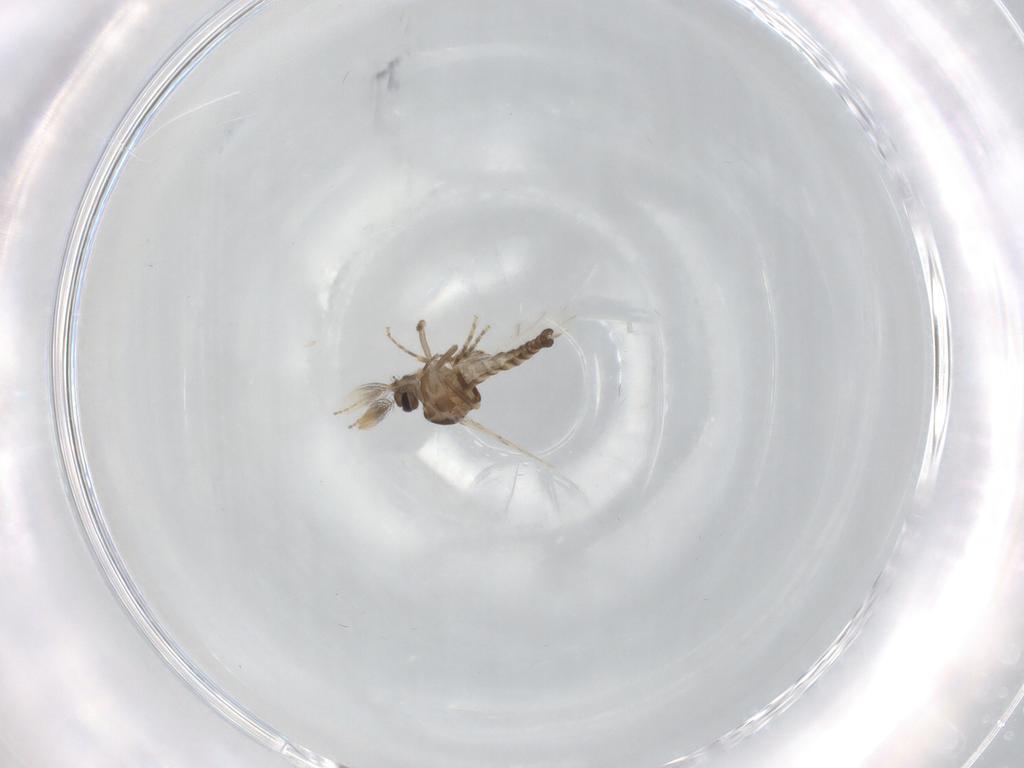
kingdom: Animalia
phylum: Arthropoda
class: Insecta
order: Diptera
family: Ceratopogonidae
